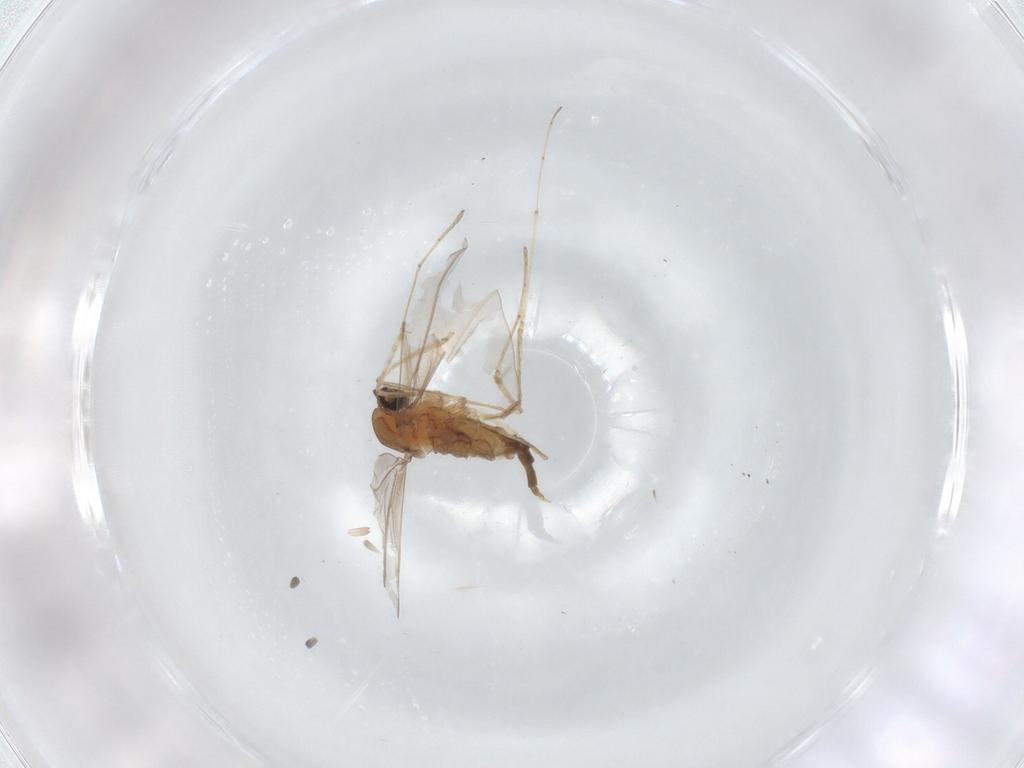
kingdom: Animalia
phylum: Arthropoda
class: Insecta
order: Diptera
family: Cecidomyiidae
